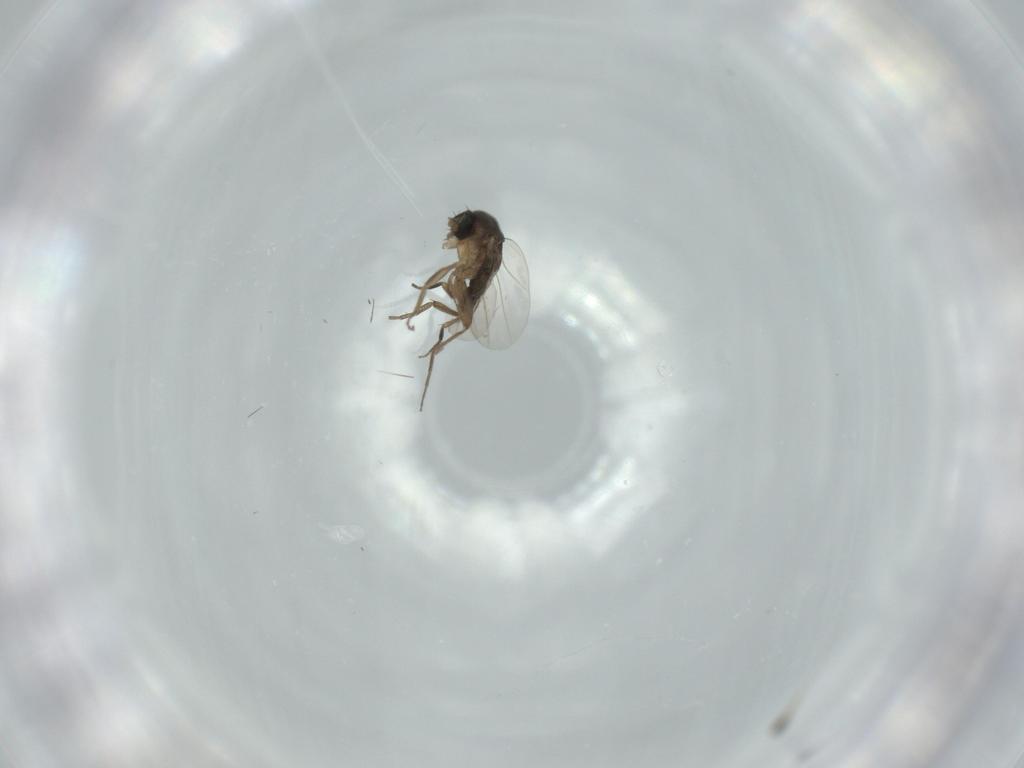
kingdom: Animalia
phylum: Arthropoda
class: Insecta
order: Diptera
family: Phoridae
